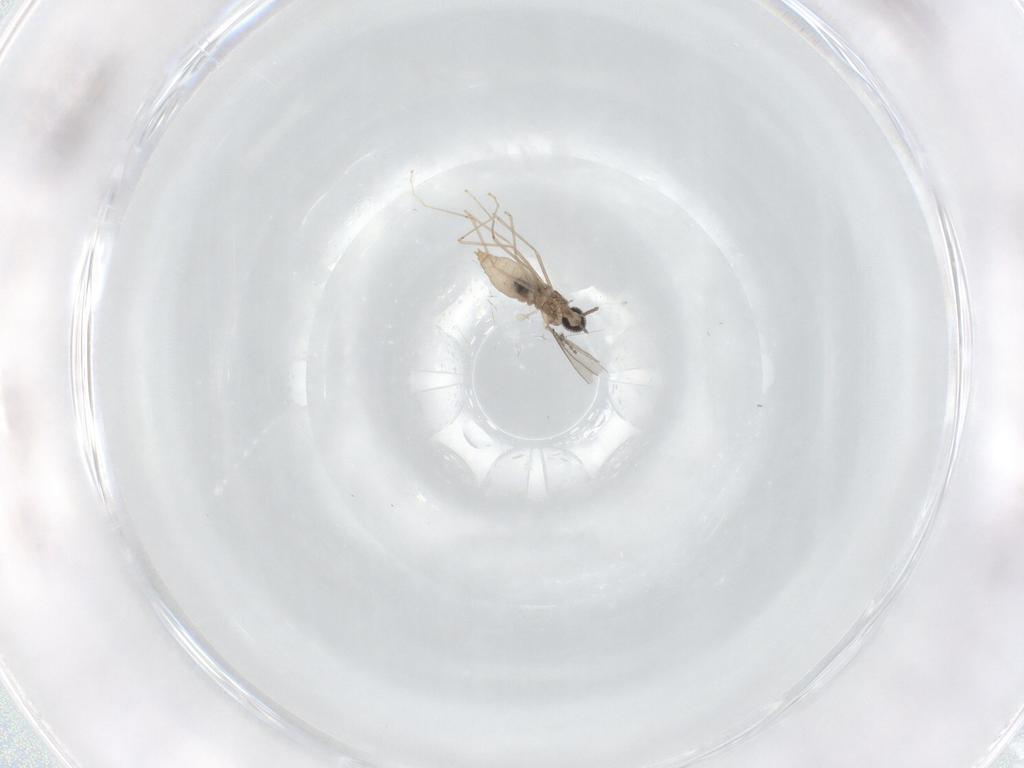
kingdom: Animalia
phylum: Arthropoda
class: Insecta
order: Diptera
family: Cecidomyiidae
